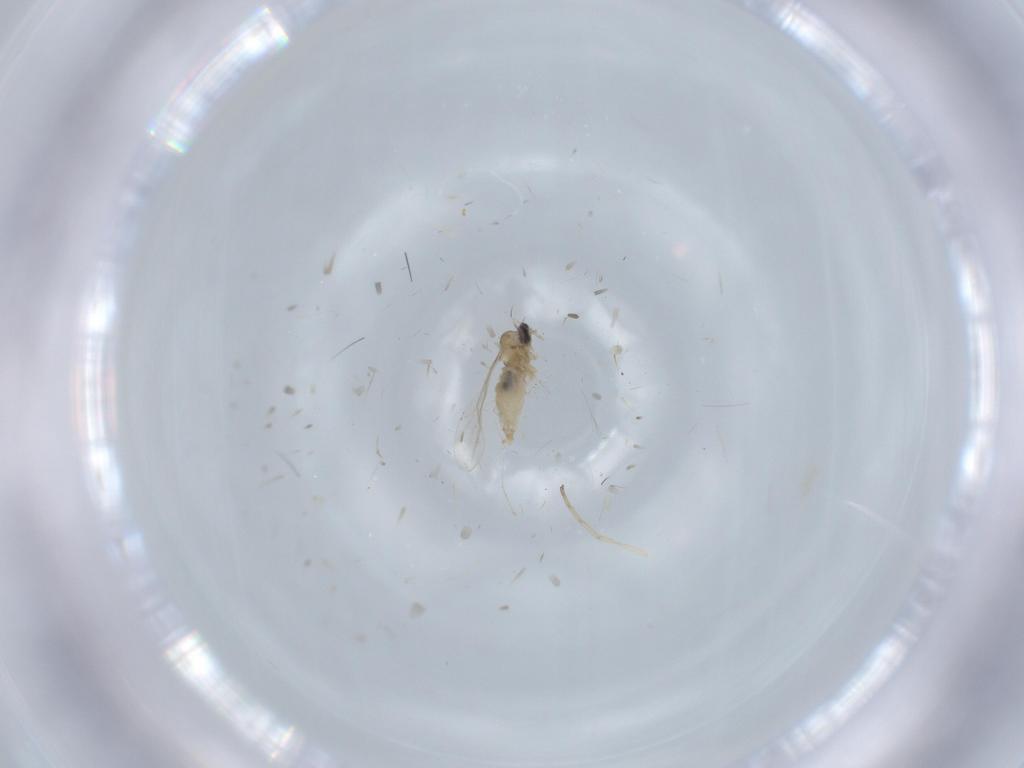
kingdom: Animalia
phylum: Arthropoda
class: Insecta
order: Diptera
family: Cecidomyiidae
